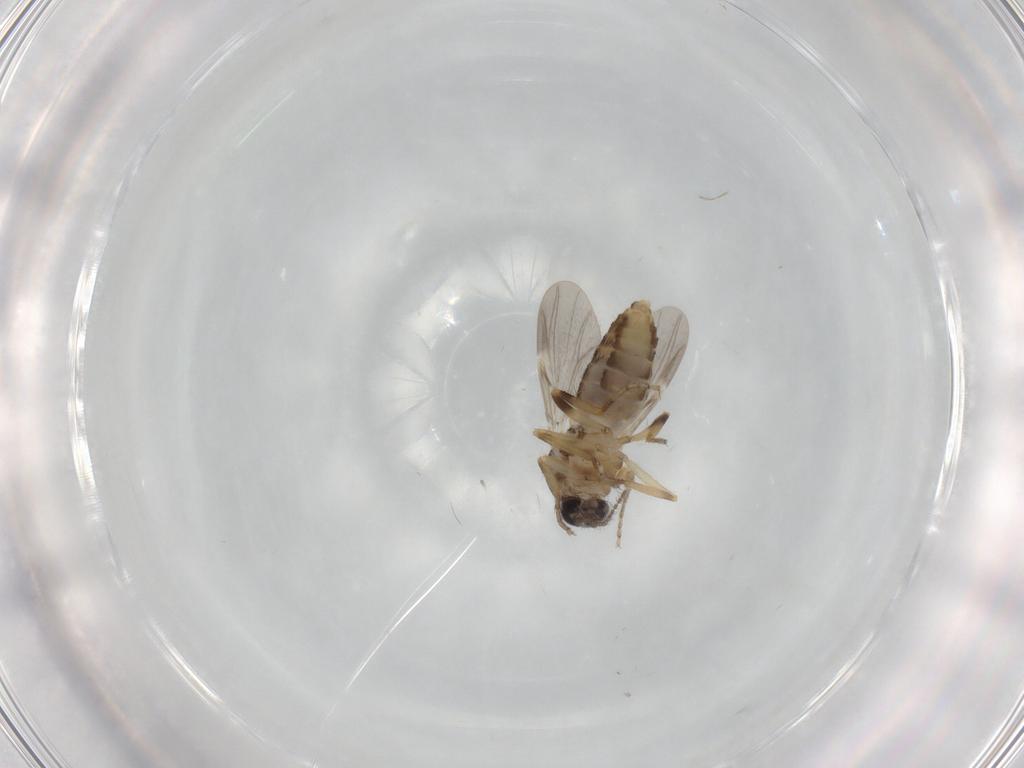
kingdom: Animalia
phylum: Arthropoda
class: Insecta
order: Diptera
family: Ceratopogonidae
